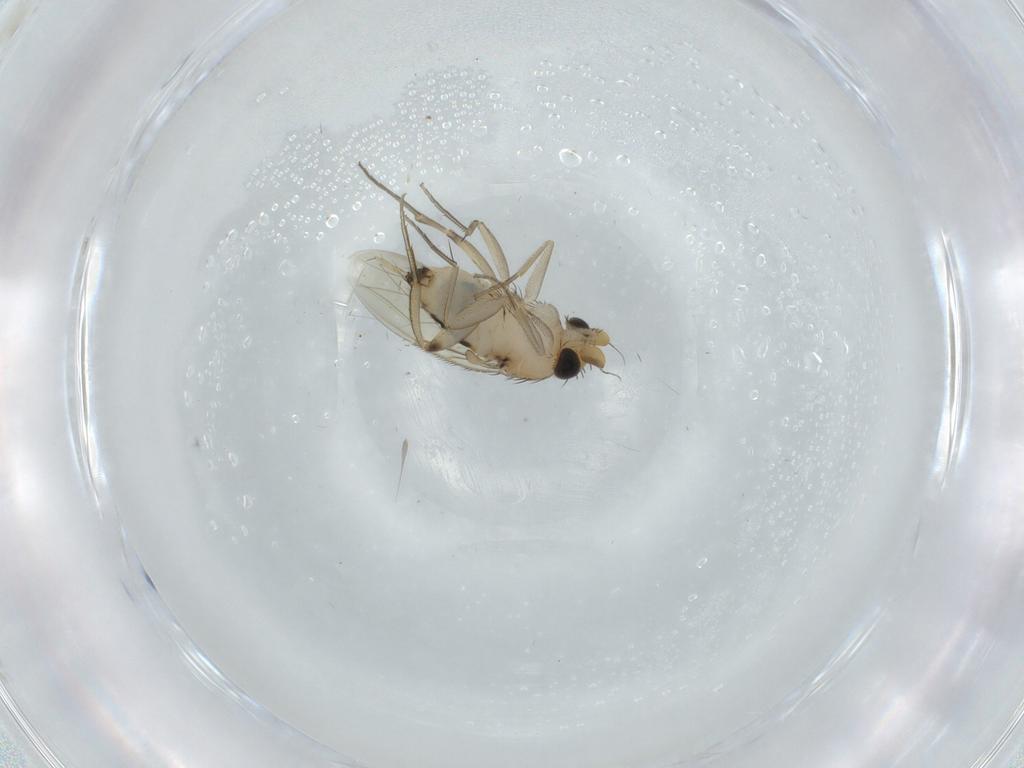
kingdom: Animalia
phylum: Arthropoda
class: Insecta
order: Diptera
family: Phoridae
